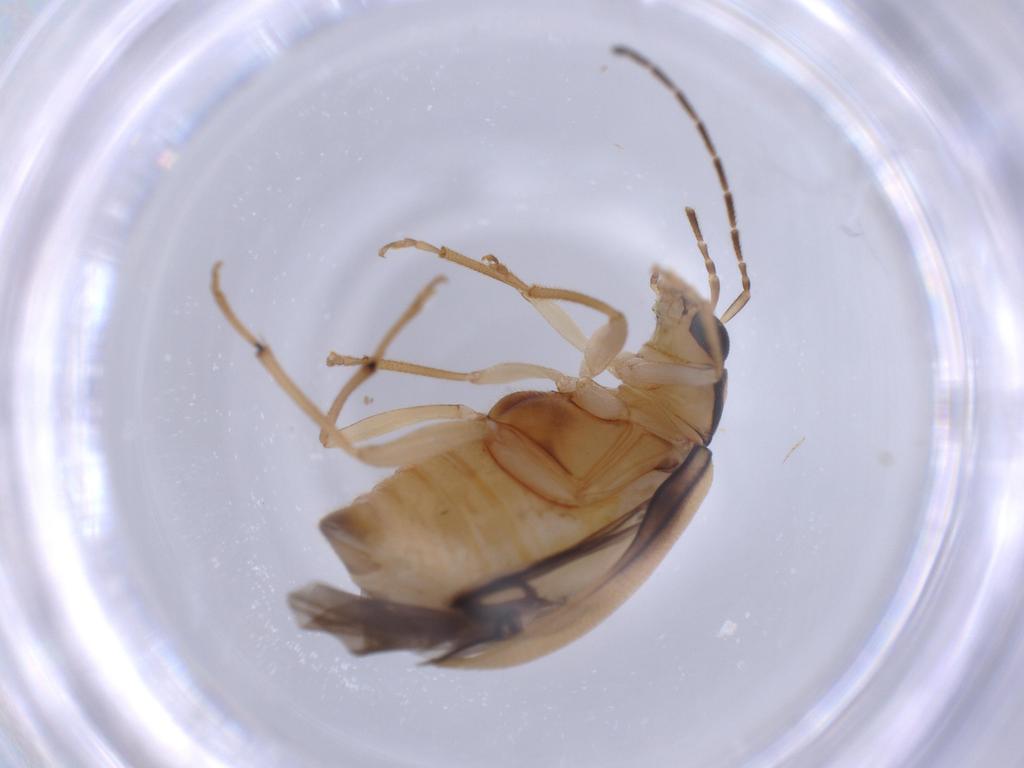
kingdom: Animalia
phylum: Arthropoda
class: Insecta
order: Coleoptera
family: Chrysomelidae
